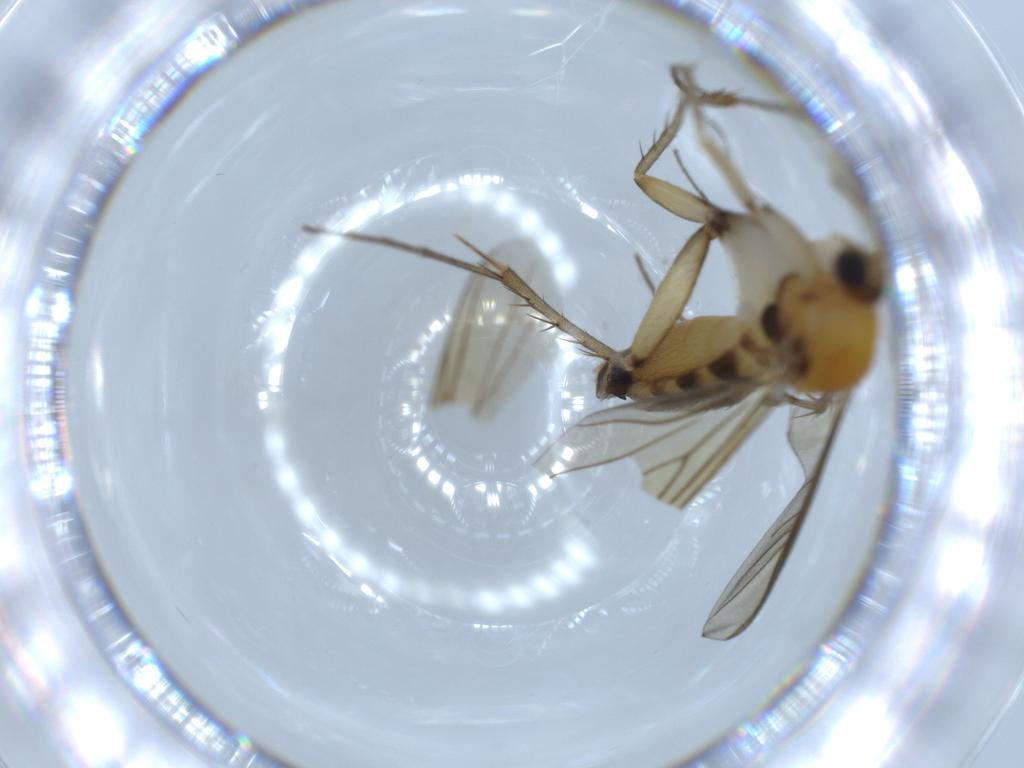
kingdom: Animalia
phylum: Arthropoda
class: Insecta
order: Diptera
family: Mycetophilidae
